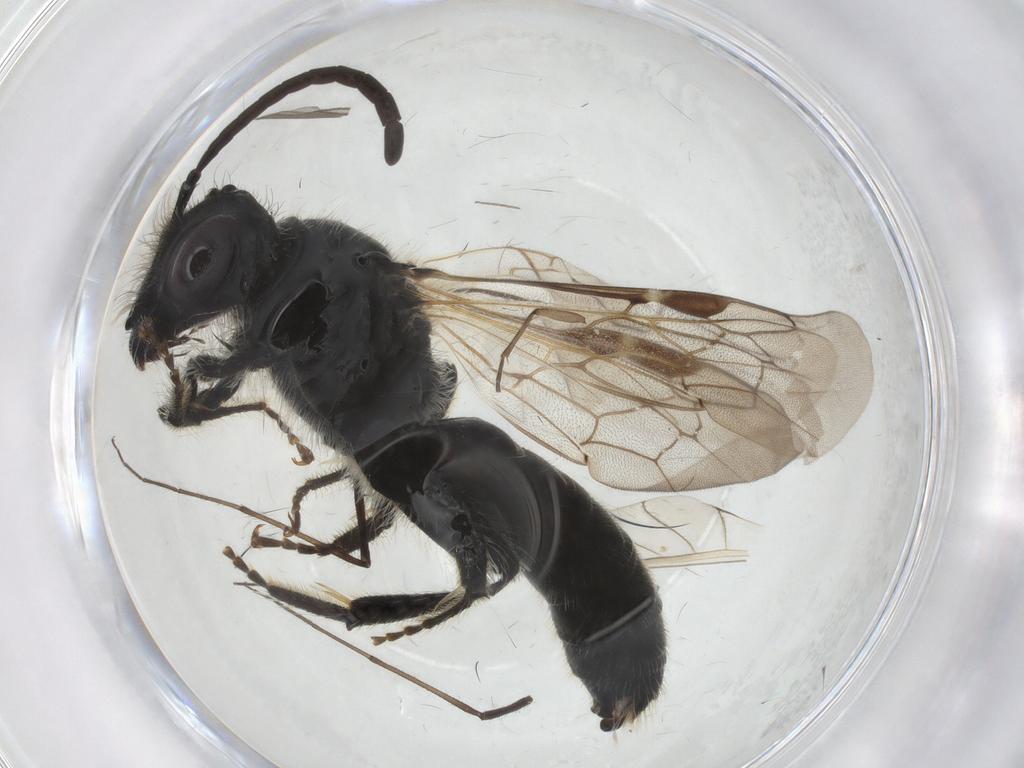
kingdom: Animalia
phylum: Arthropoda
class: Insecta
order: Hymenoptera
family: Andrenidae
